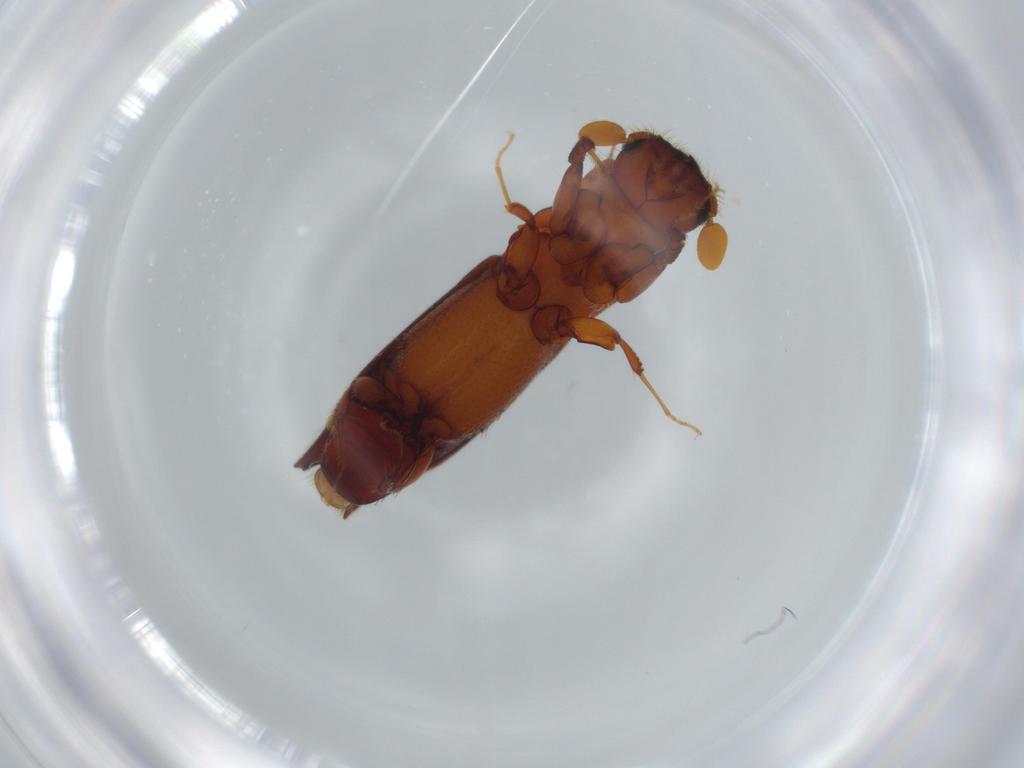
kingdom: Animalia
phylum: Arthropoda
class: Insecta
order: Coleoptera
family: Curculionidae
